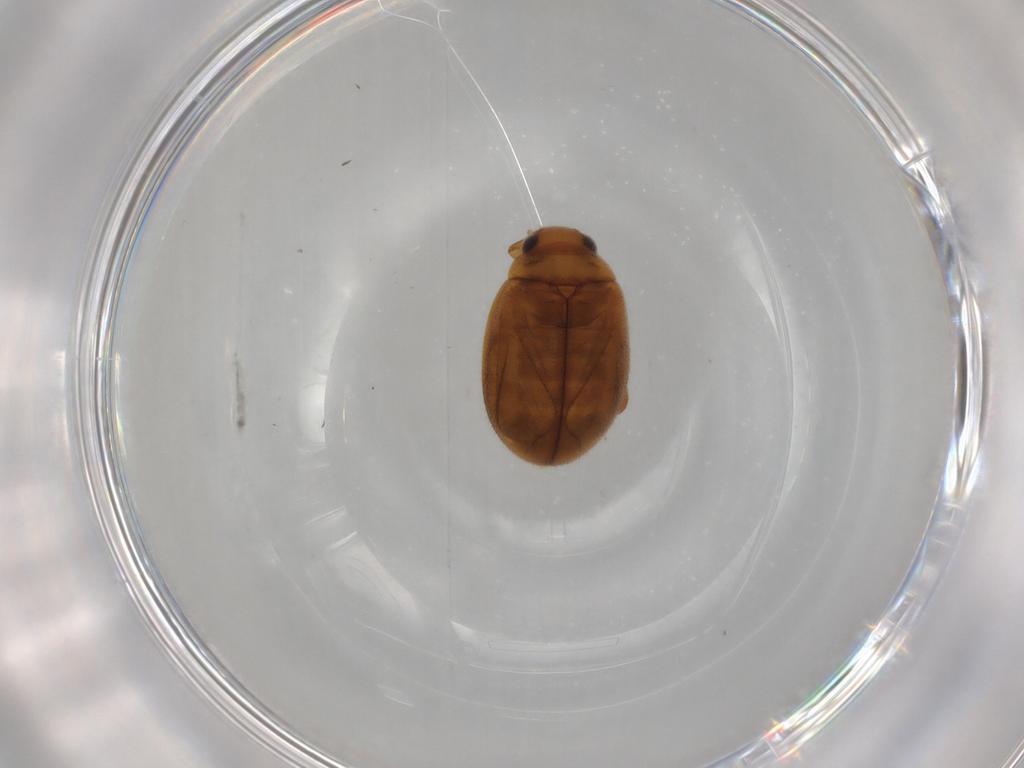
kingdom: Animalia
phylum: Arthropoda
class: Insecta
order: Coleoptera
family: Scirtidae
